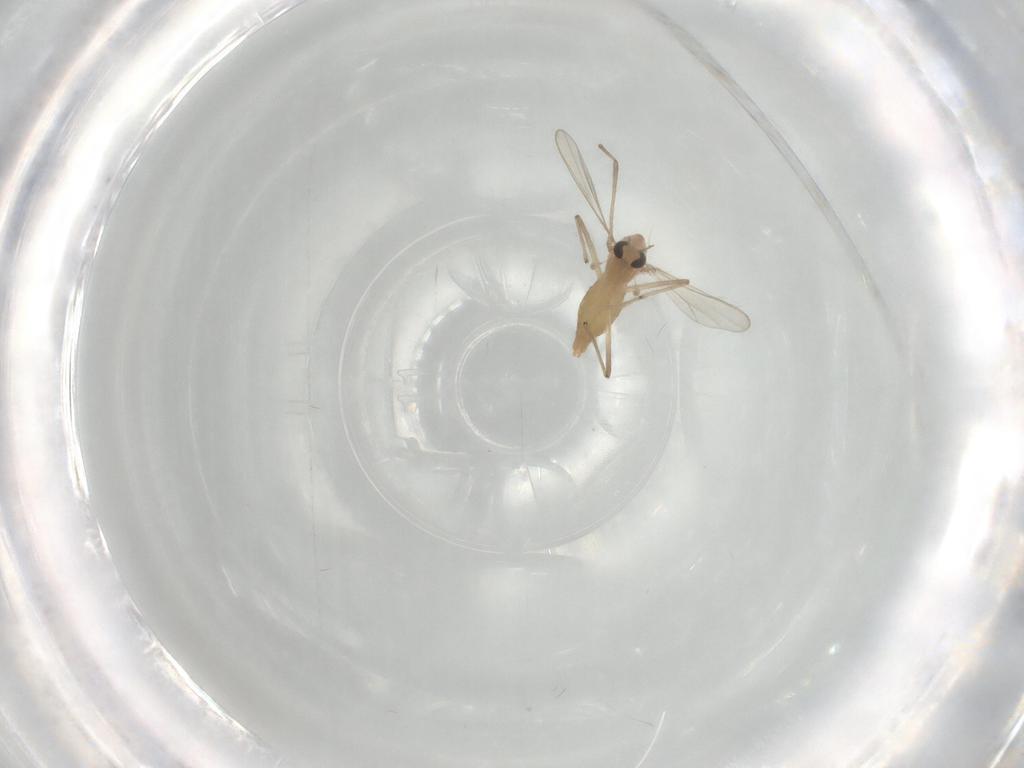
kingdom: Animalia
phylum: Arthropoda
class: Insecta
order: Diptera
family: Chironomidae
